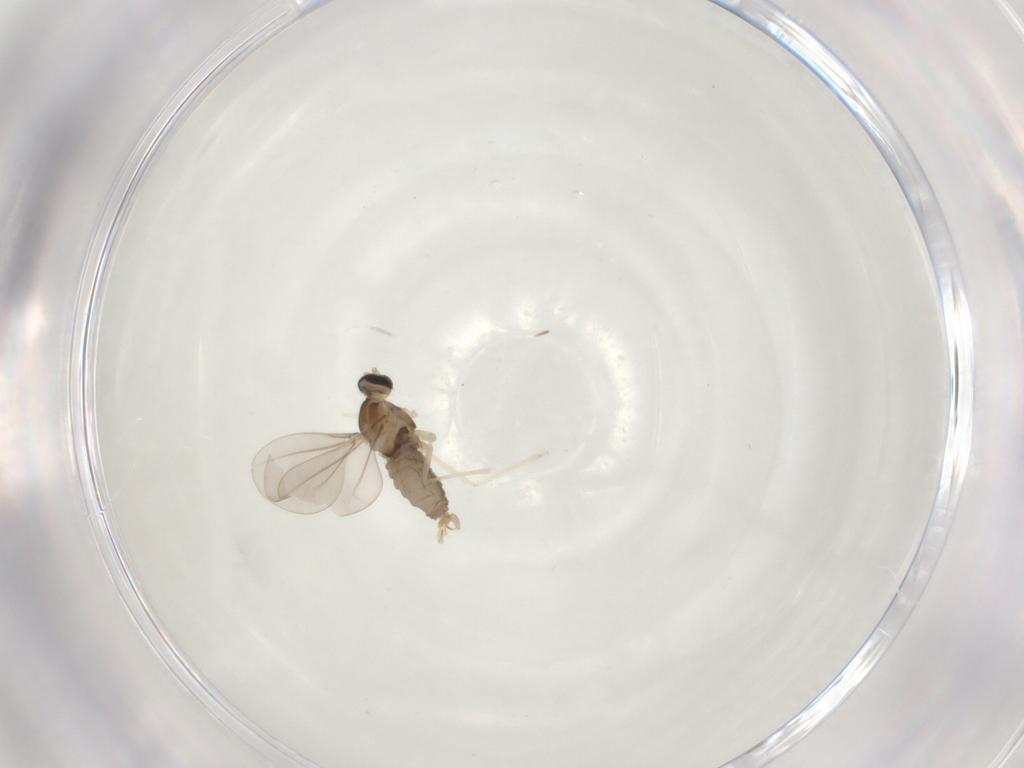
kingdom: Animalia
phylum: Arthropoda
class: Insecta
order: Diptera
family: Cecidomyiidae
